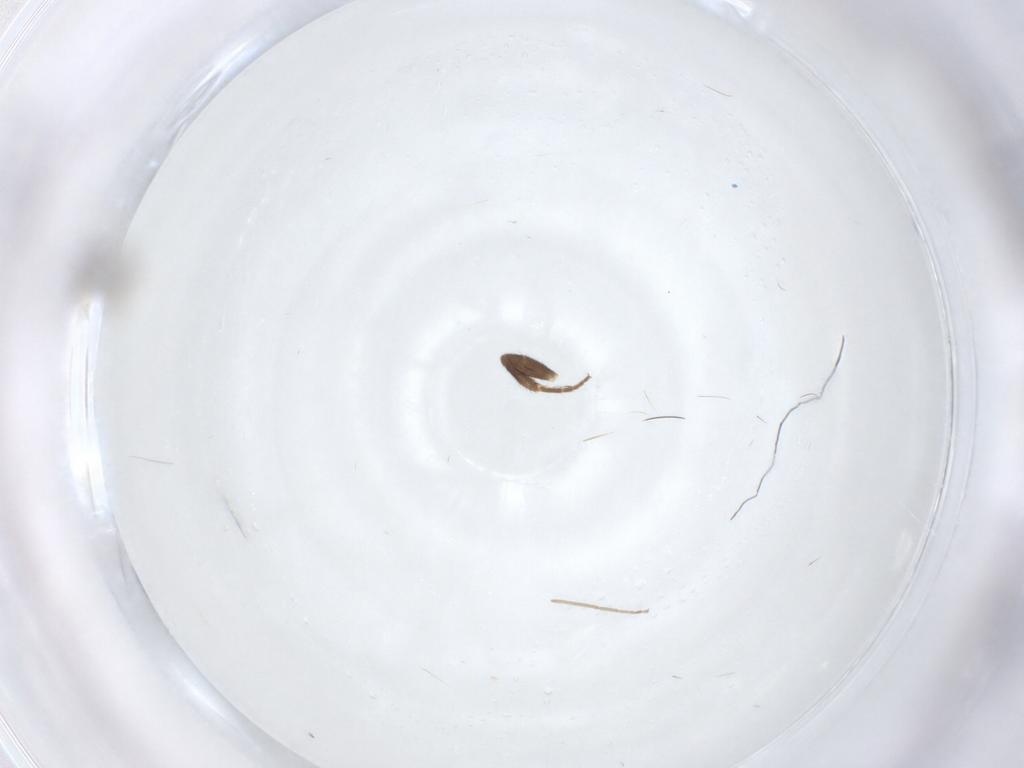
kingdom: Animalia
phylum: Arthropoda
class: Insecta
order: Diptera
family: Cecidomyiidae
